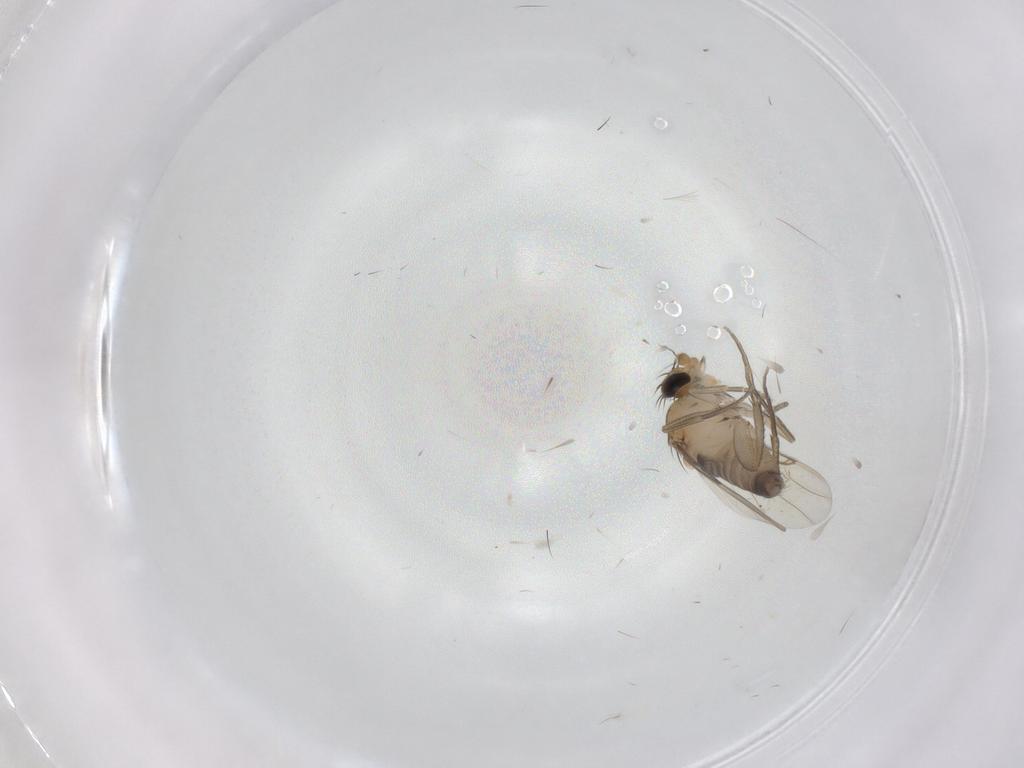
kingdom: Animalia
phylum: Arthropoda
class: Insecta
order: Diptera
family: Phoridae
